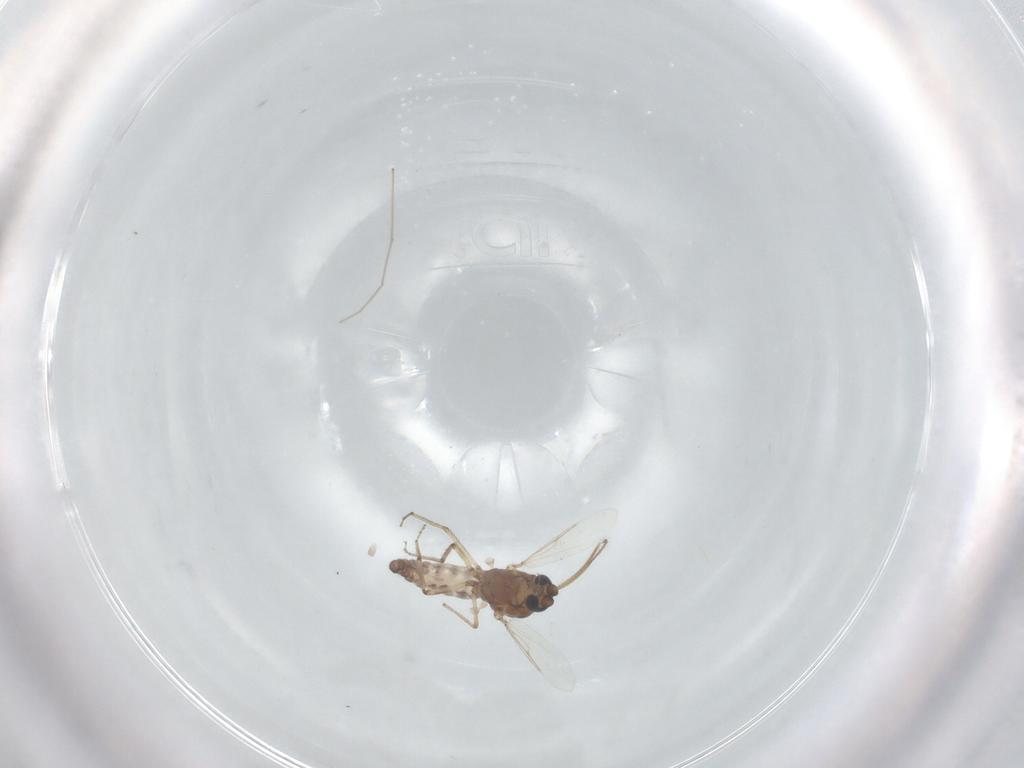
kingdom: Animalia
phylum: Arthropoda
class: Insecta
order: Diptera
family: Ceratopogonidae
